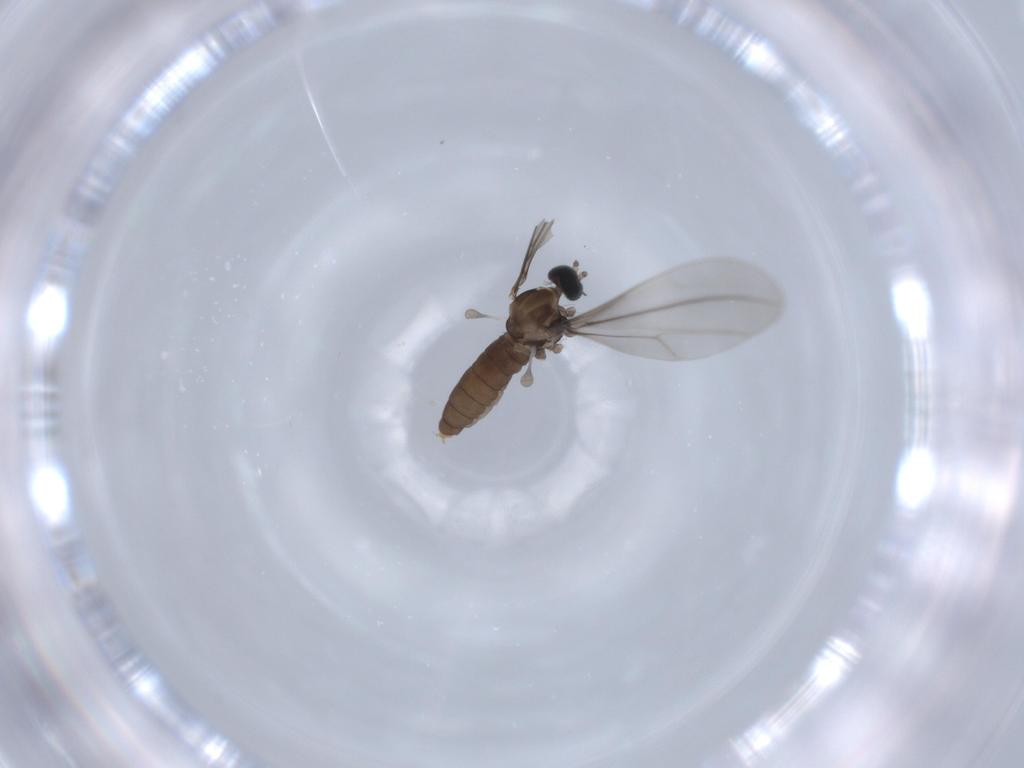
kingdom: Animalia
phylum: Arthropoda
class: Insecta
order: Diptera
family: Cecidomyiidae
